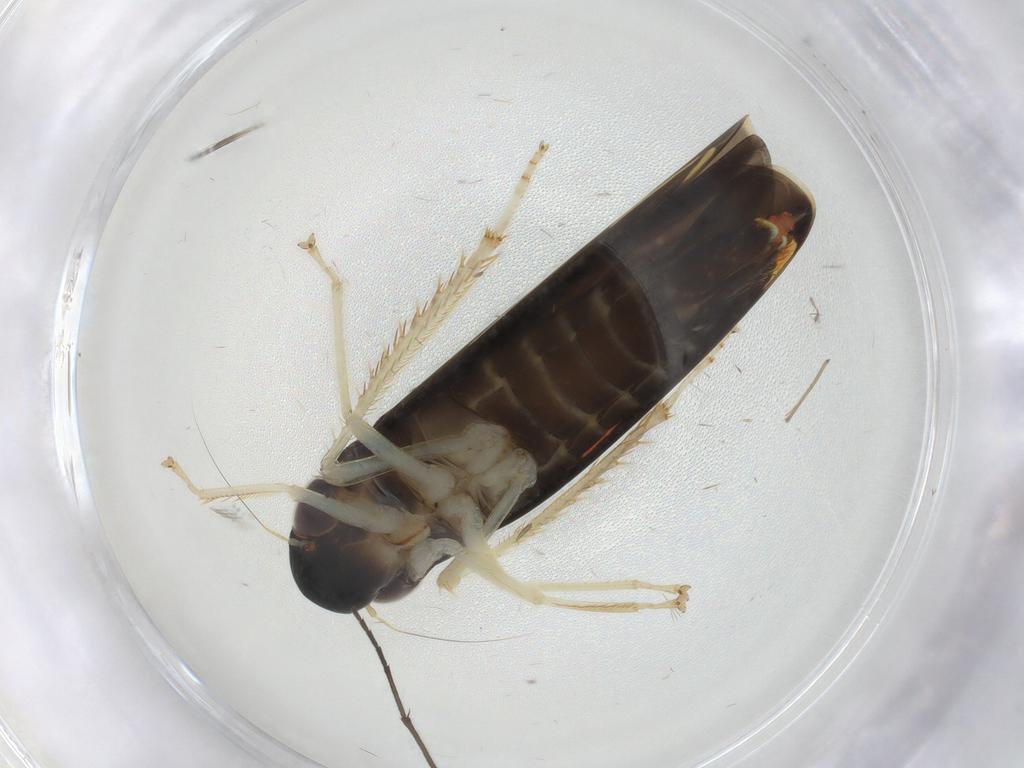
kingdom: Animalia
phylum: Arthropoda
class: Insecta
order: Hemiptera
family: Cicadellidae
